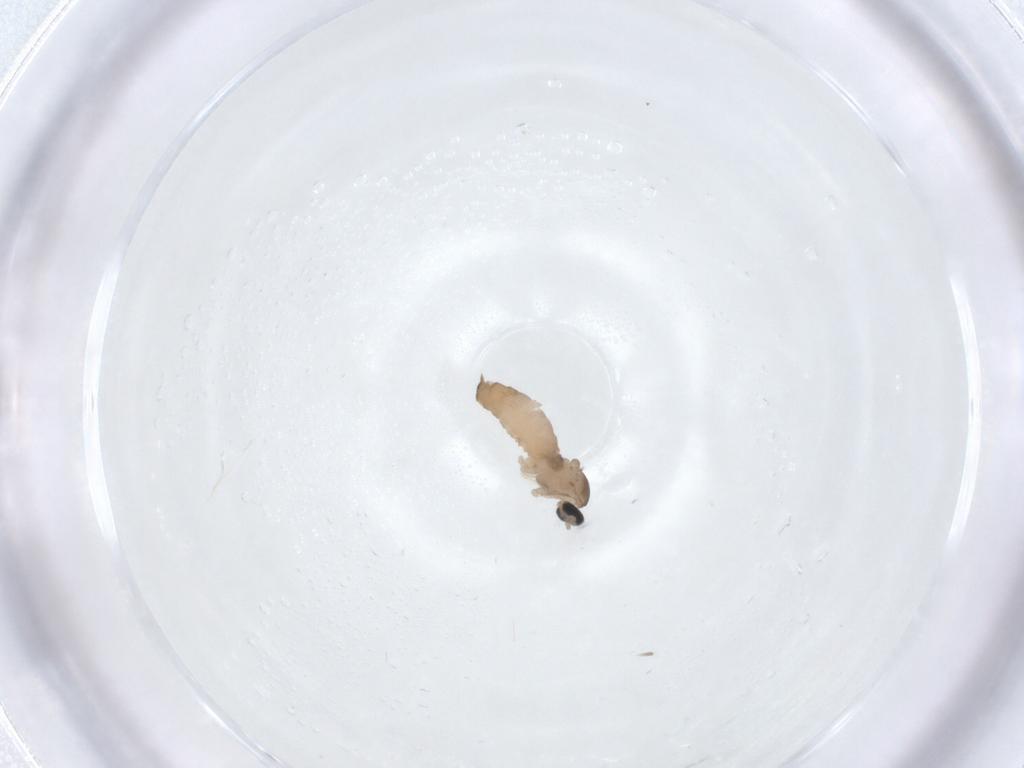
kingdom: Animalia
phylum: Arthropoda
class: Insecta
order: Diptera
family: Cecidomyiidae
